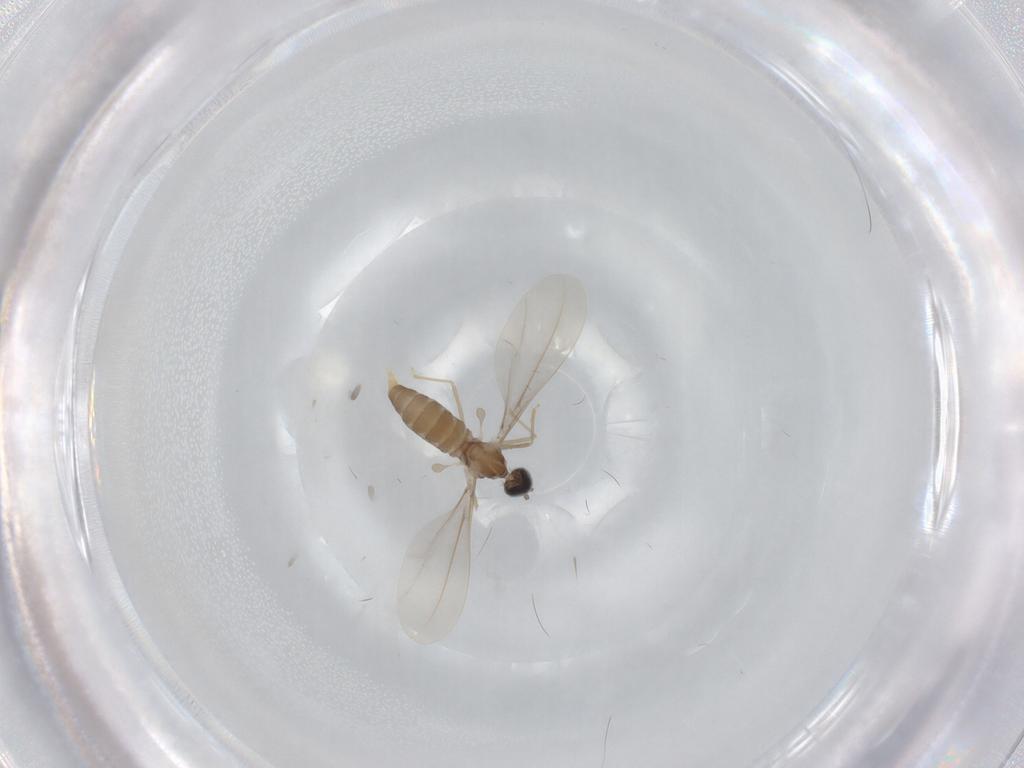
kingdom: Animalia
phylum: Arthropoda
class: Insecta
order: Diptera
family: Cecidomyiidae
